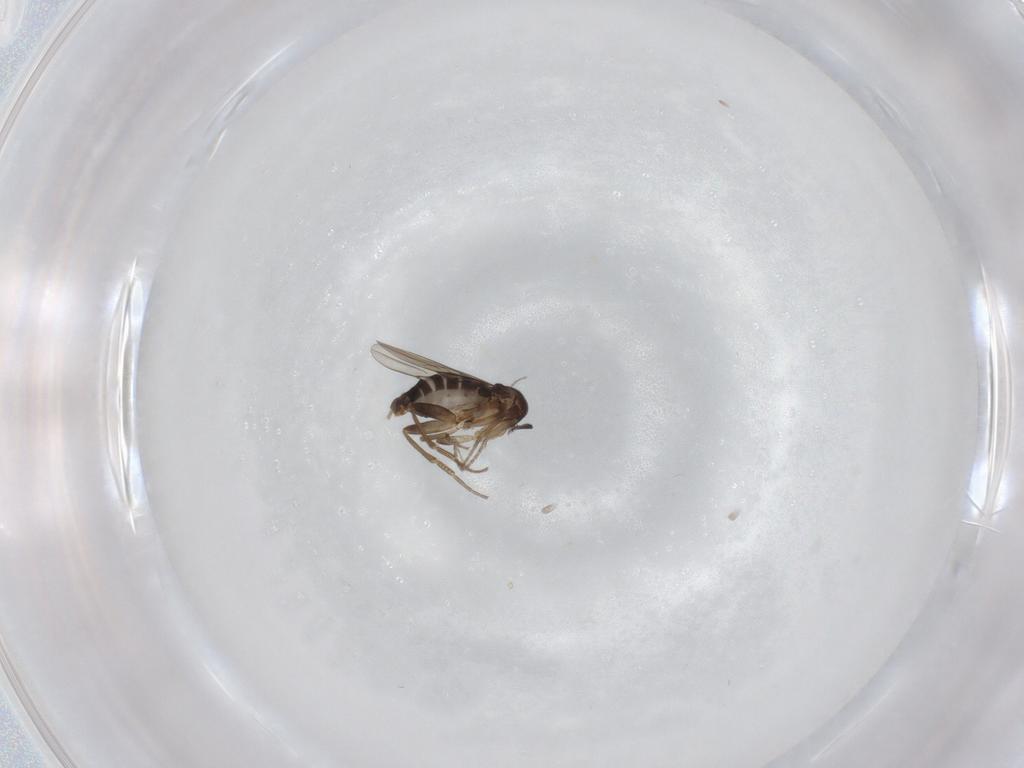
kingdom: Animalia
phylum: Arthropoda
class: Insecta
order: Diptera
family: Phoridae
